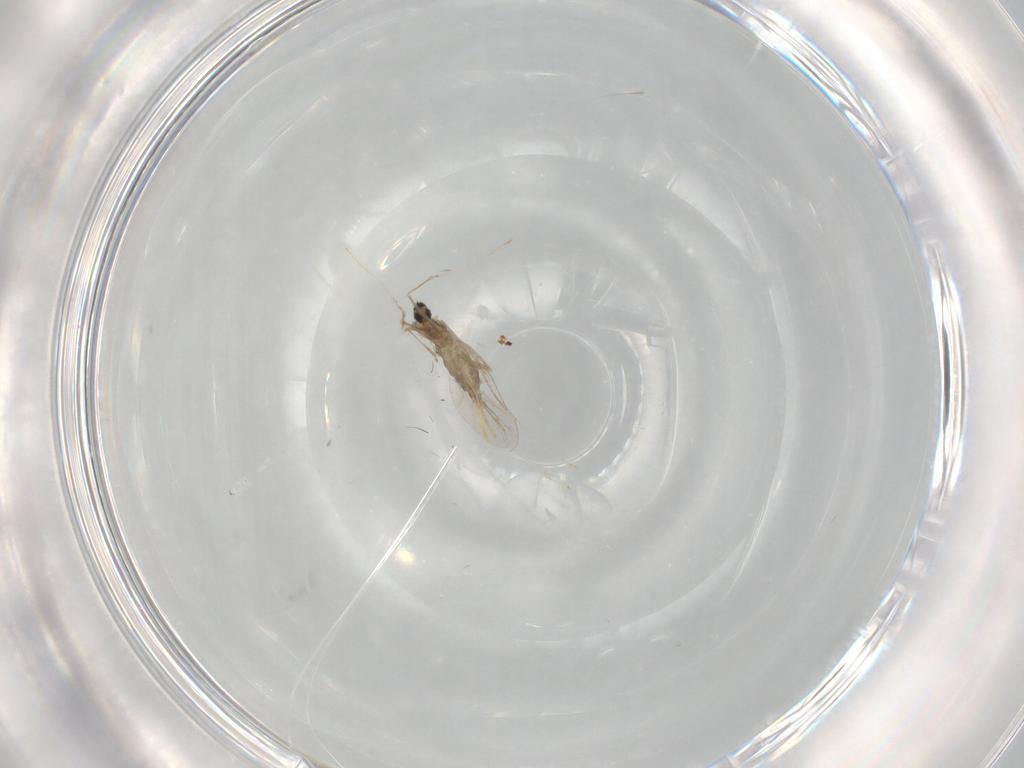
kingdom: Animalia
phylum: Arthropoda
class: Insecta
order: Diptera
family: Cecidomyiidae
